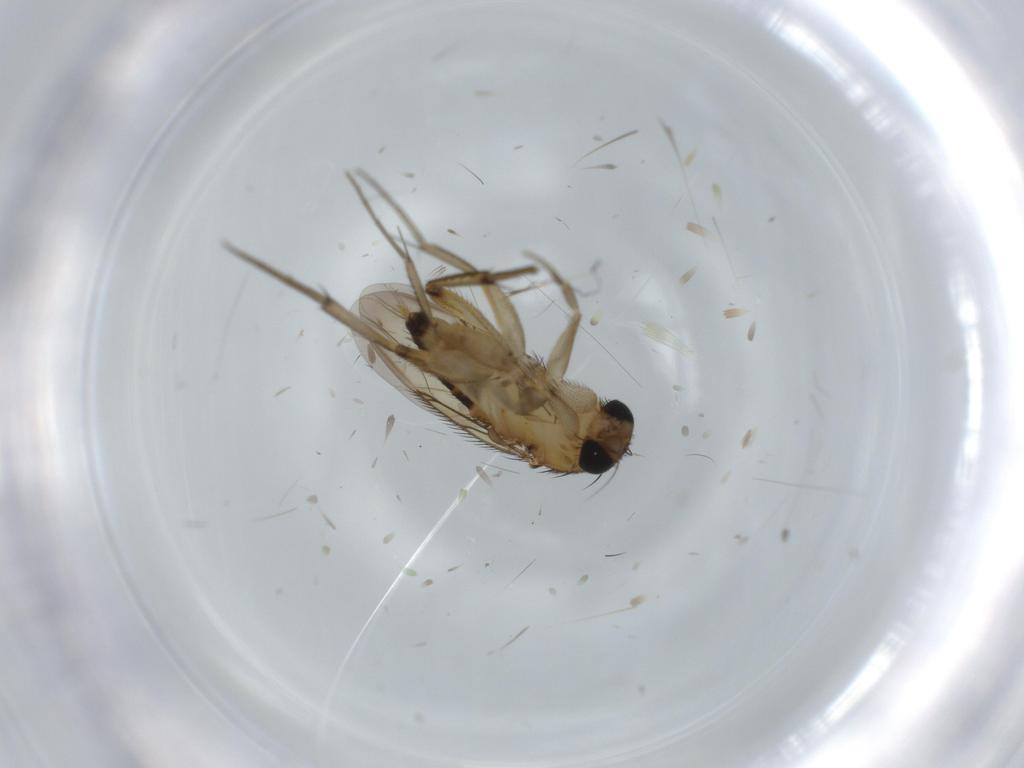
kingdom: Animalia
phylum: Arthropoda
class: Insecta
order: Diptera
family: Phoridae
